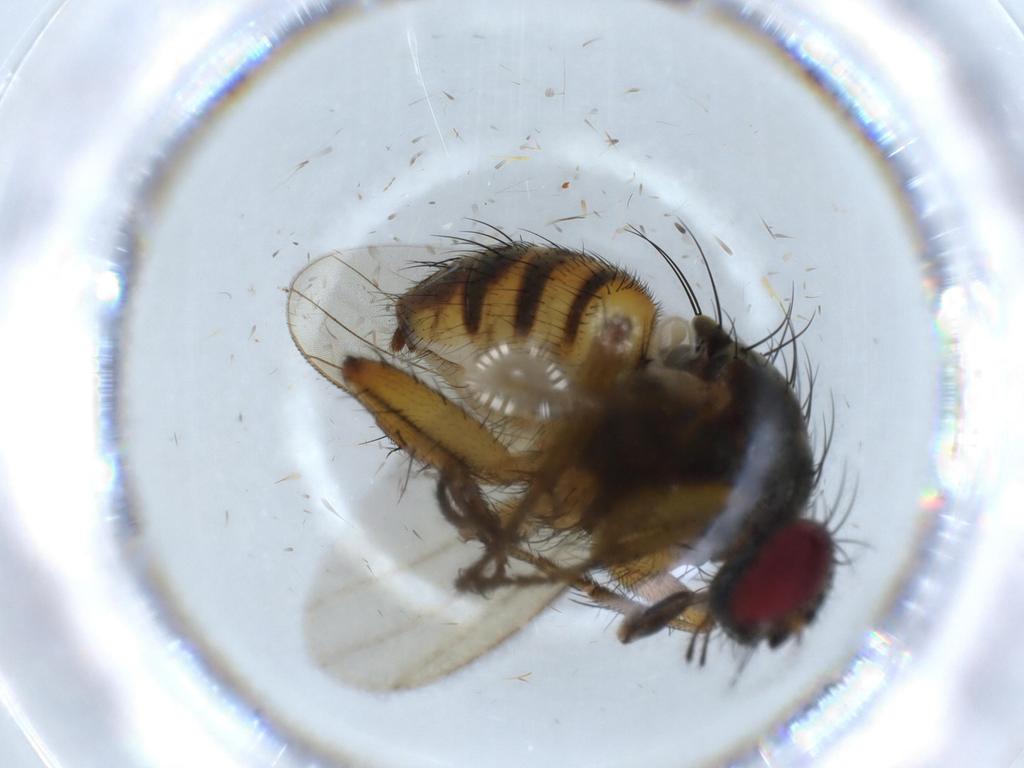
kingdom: Animalia
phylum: Arthropoda
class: Insecta
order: Diptera
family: Muscidae
